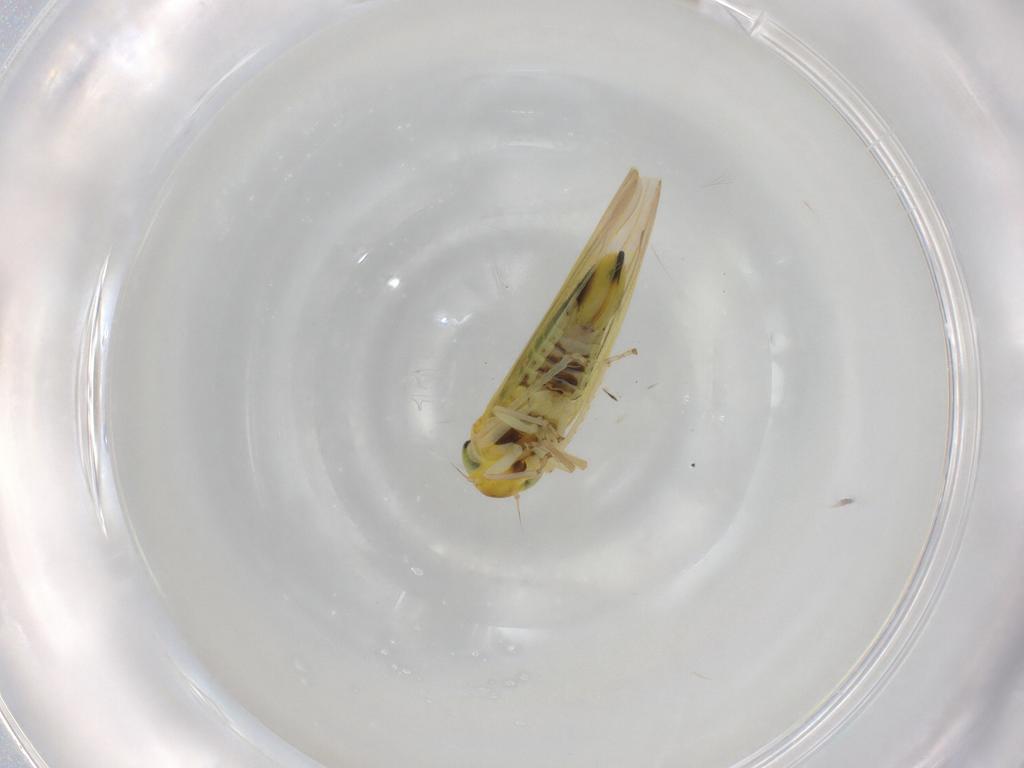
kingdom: Animalia
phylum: Arthropoda
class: Insecta
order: Hemiptera
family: Cicadellidae
